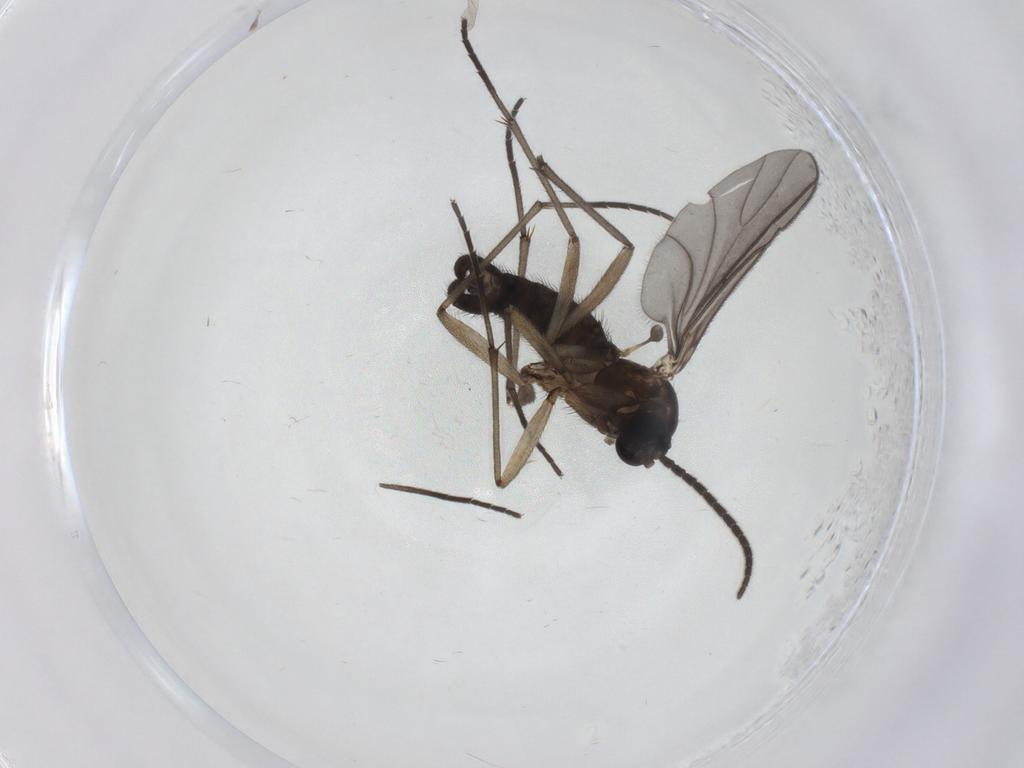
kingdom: Animalia
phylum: Arthropoda
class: Insecta
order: Diptera
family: Sciaridae
